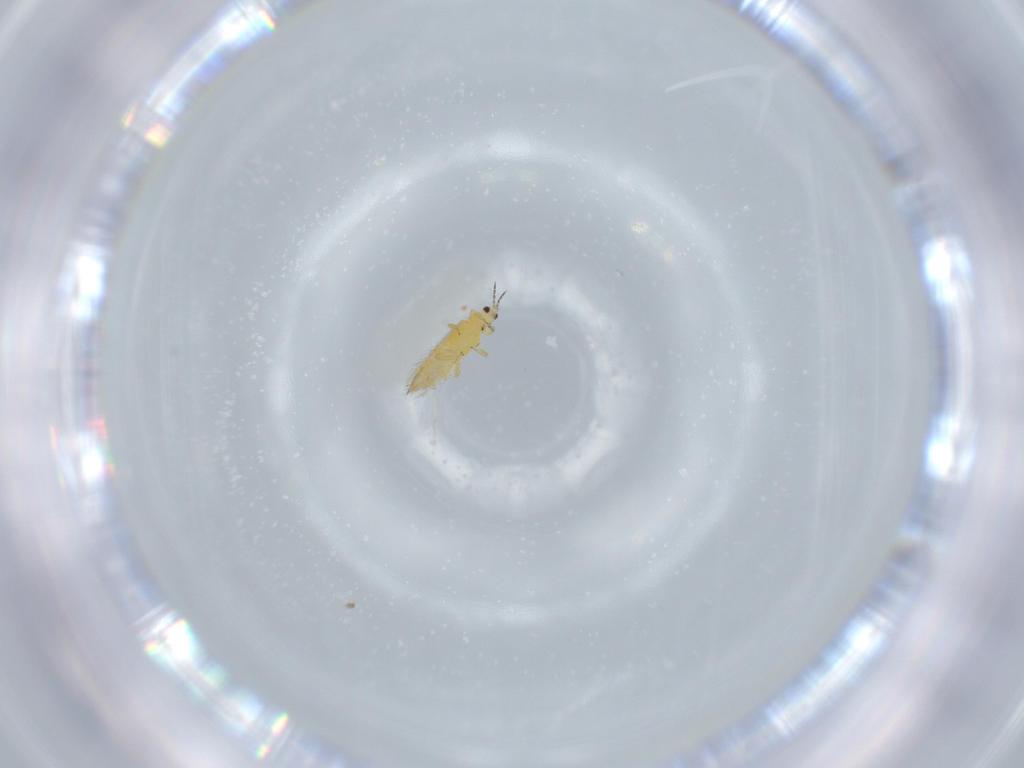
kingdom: Animalia
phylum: Arthropoda
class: Insecta
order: Thysanoptera
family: Thripidae
